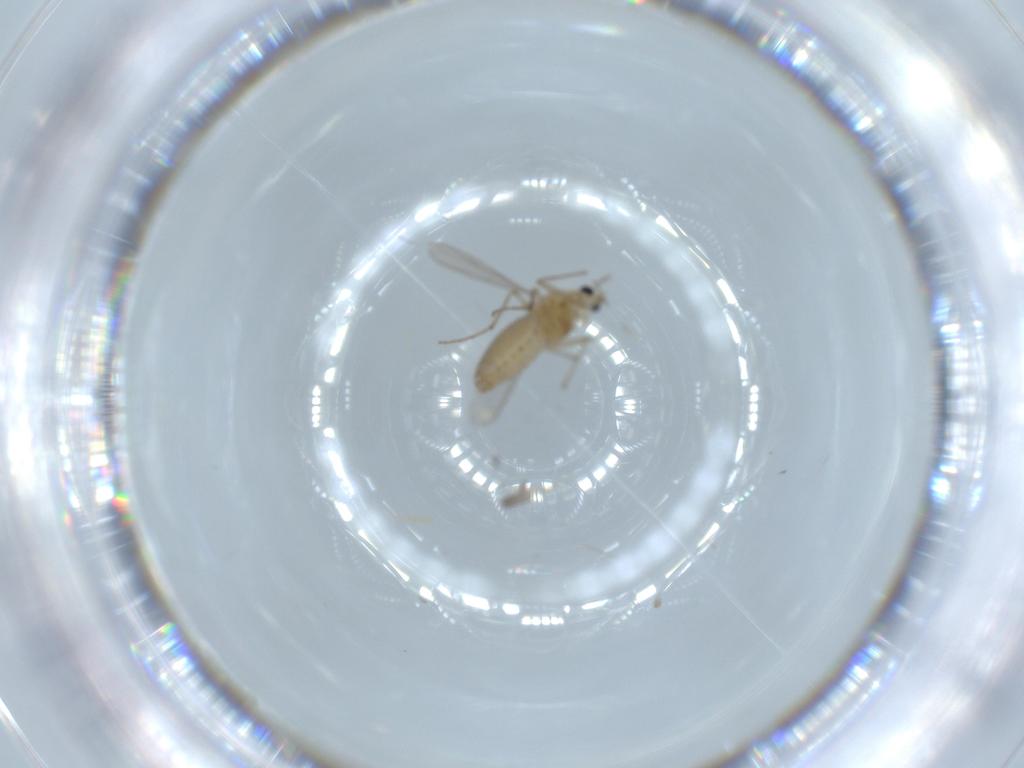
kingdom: Animalia
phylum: Arthropoda
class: Insecta
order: Diptera
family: Chironomidae
